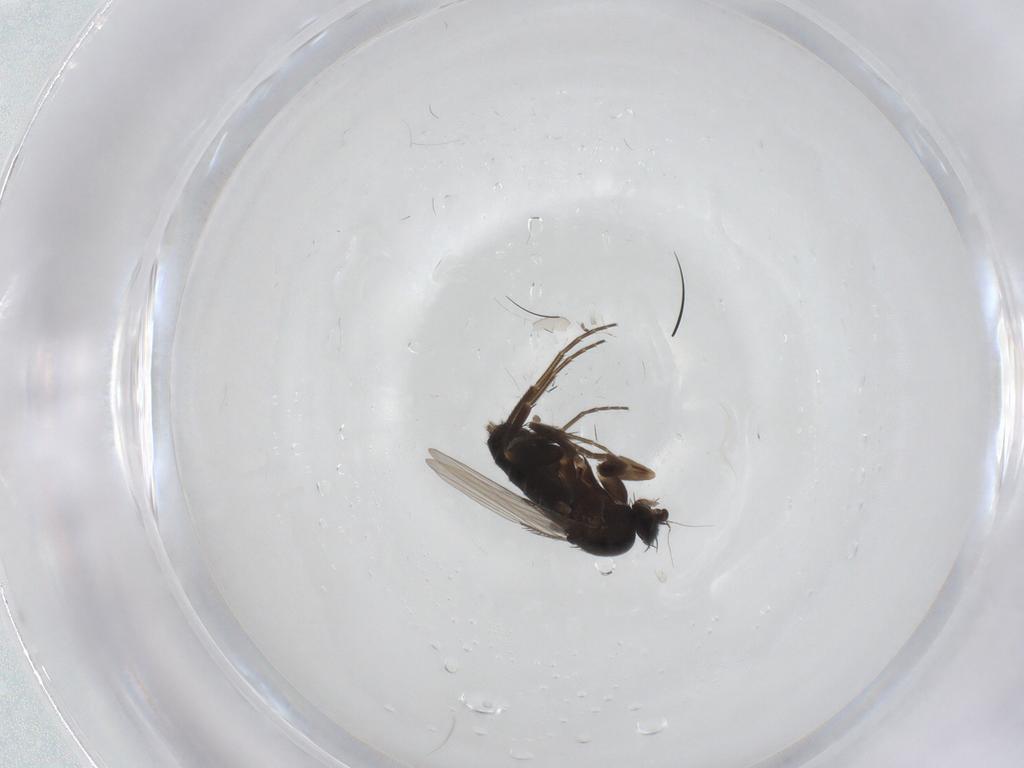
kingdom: Animalia
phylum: Arthropoda
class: Insecta
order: Diptera
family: Phoridae
